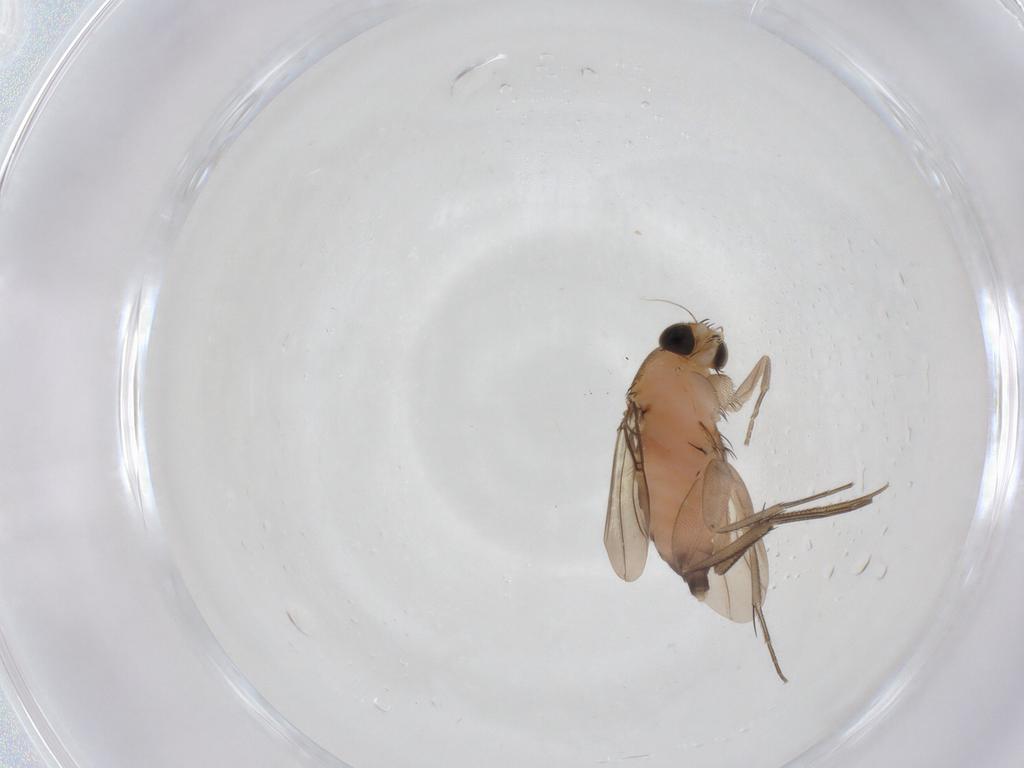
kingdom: Animalia
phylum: Arthropoda
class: Insecta
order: Diptera
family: Phoridae
